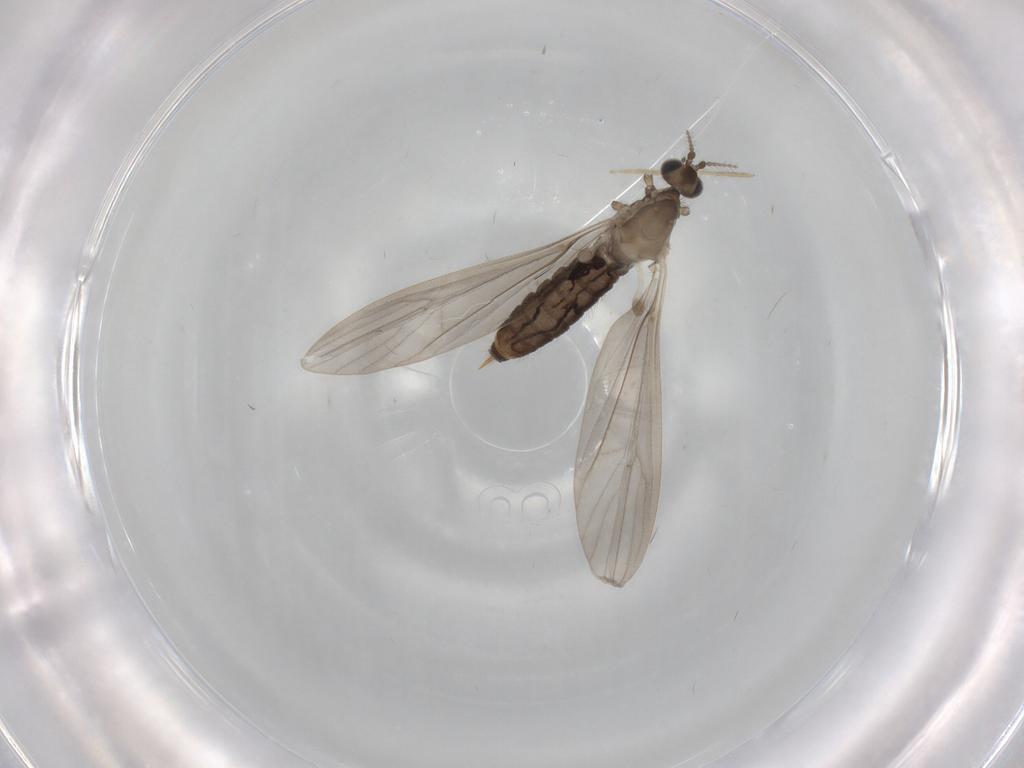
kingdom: Animalia
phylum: Arthropoda
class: Insecta
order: Diptera
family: Limoniidae
